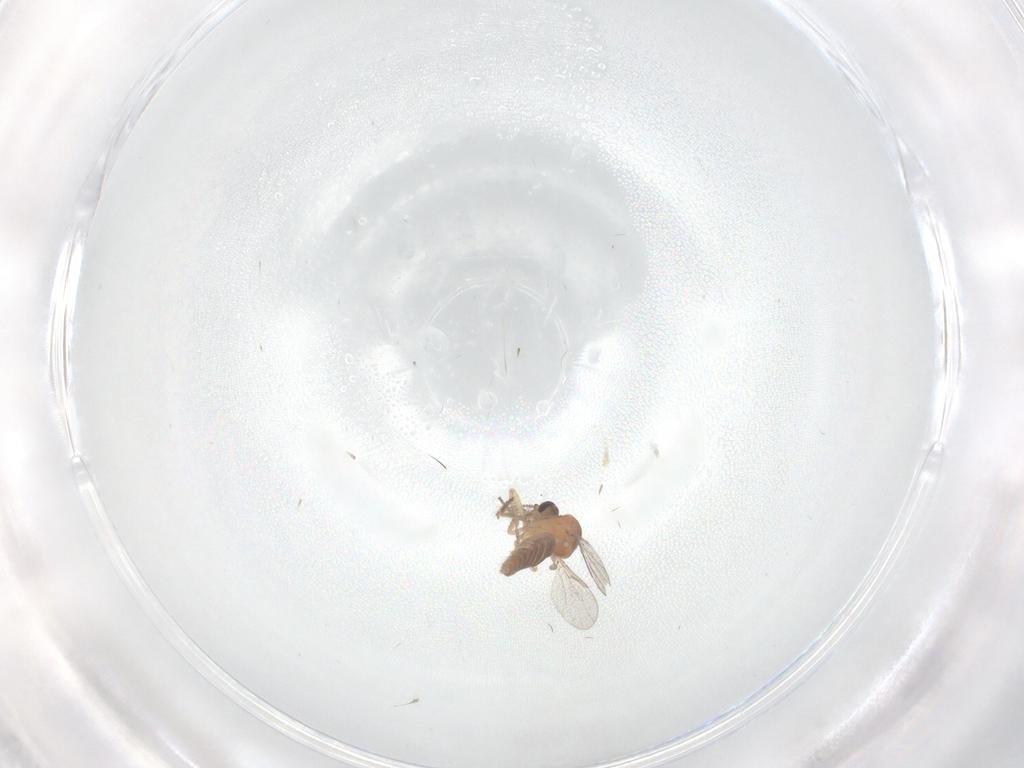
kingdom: Animalia
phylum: Arthropoda
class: Insecta
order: Diptera
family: Ceratopogonidae
